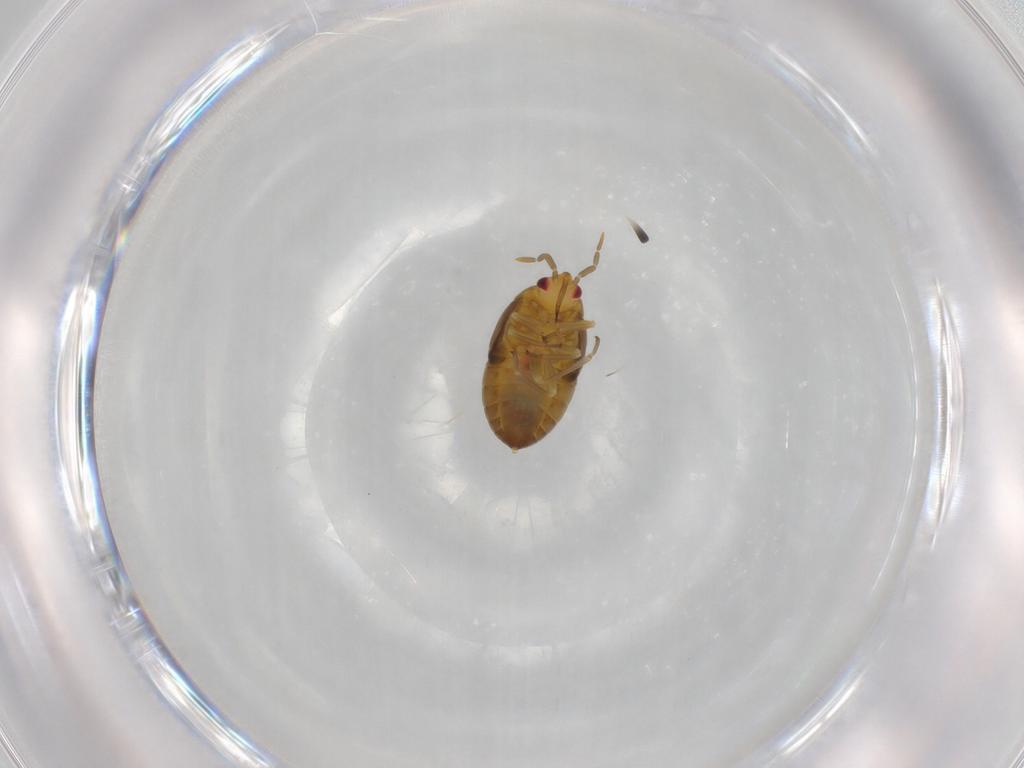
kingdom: Animalia
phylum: Arthropoda
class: Insecta
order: Hemiptera
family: Anthocoridae
